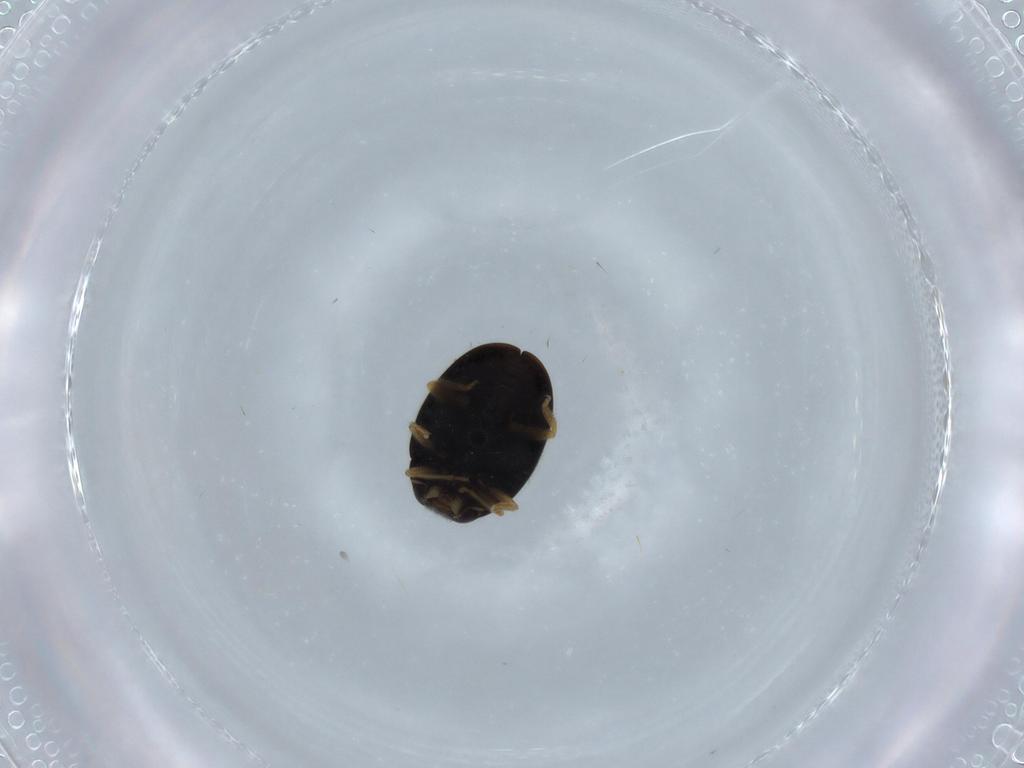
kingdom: Animalia
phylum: Arthropoda
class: Insecta
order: Coleoptera
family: Coccinellidae
